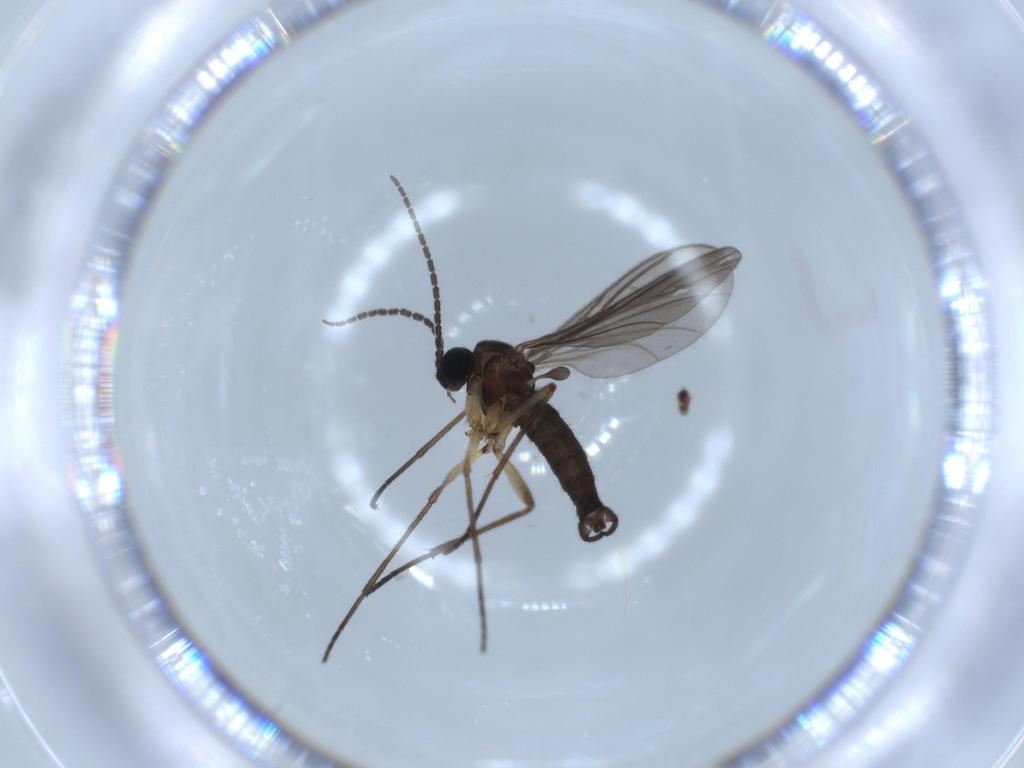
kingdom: Animalia
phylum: Arthropoda
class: Insecta
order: Diptera
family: Sciaridae
